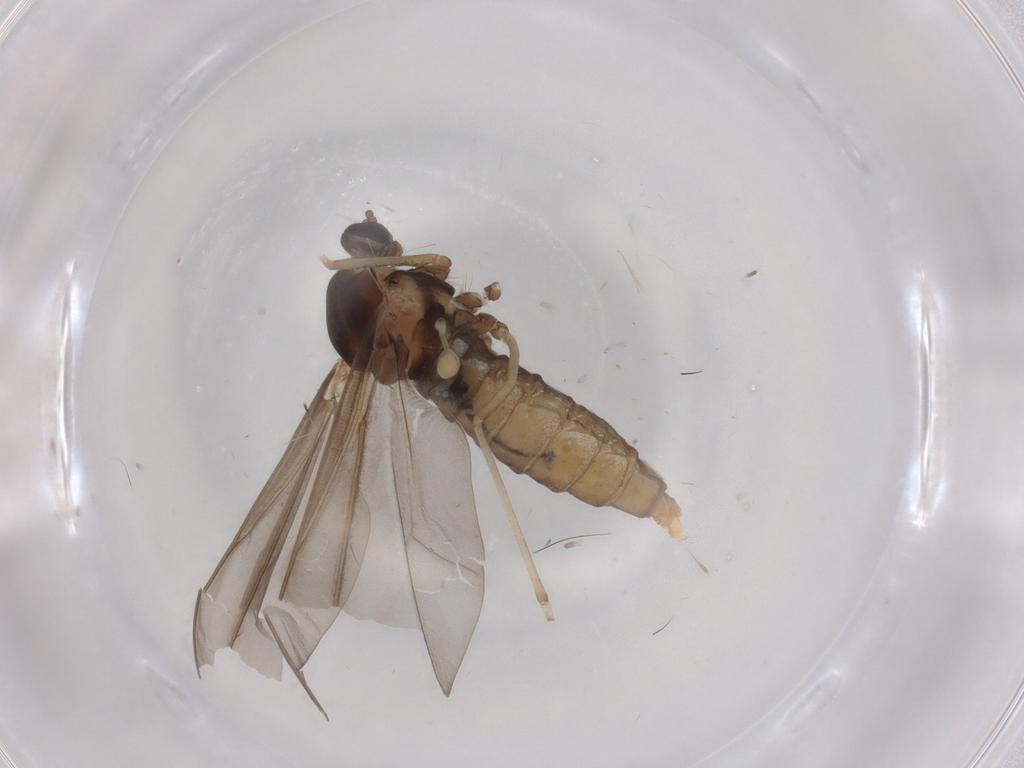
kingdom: Animalia
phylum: Arthropoda
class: Insecta
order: Diptera
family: Cecidomyiidae
